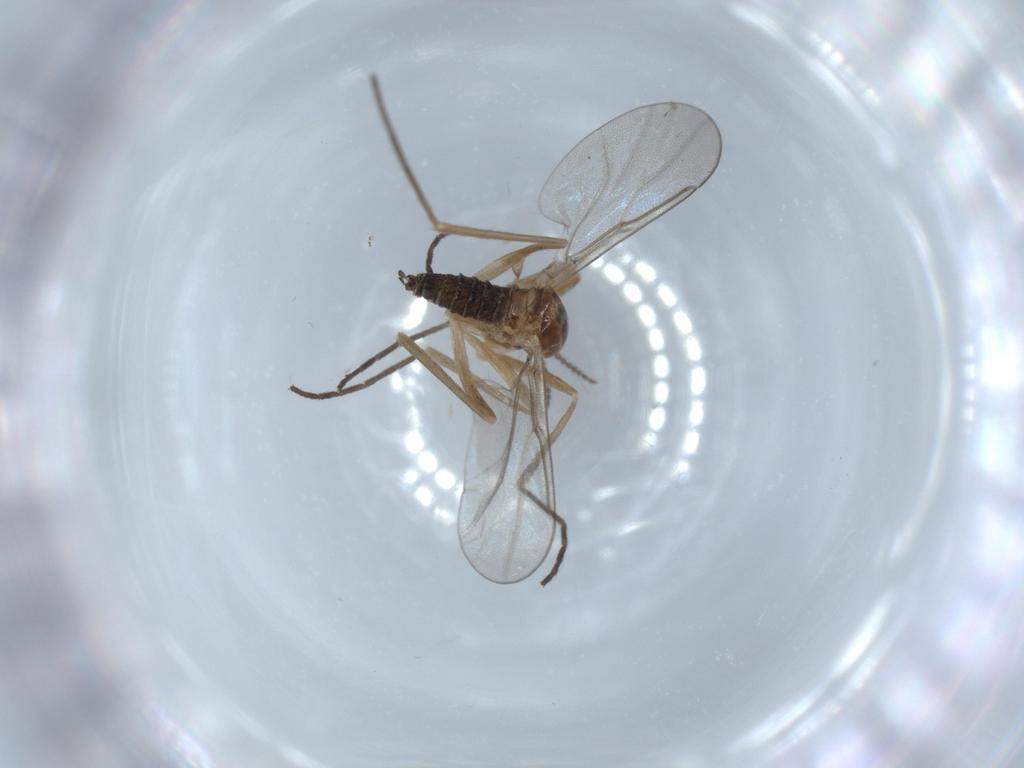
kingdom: Animalia
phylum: Arthropoda
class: Insecta
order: Diptera
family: Cecidomyiidae
